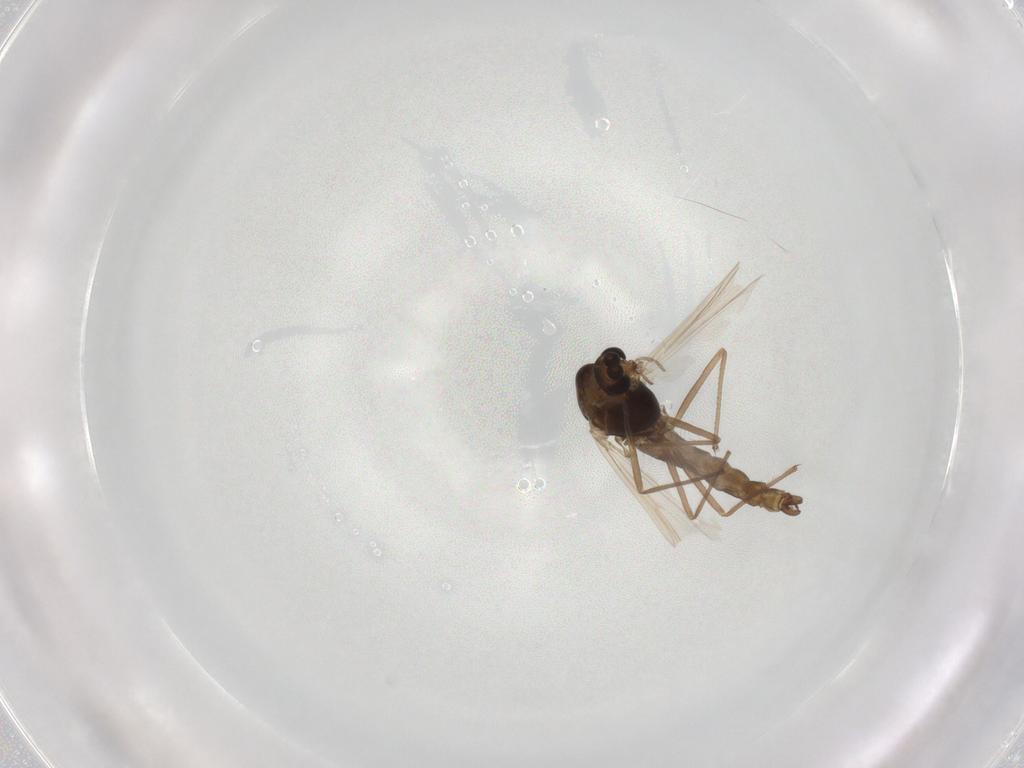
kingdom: Animalia
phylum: Arthropoda
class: Insecta
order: Diptera
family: Chironomidae
